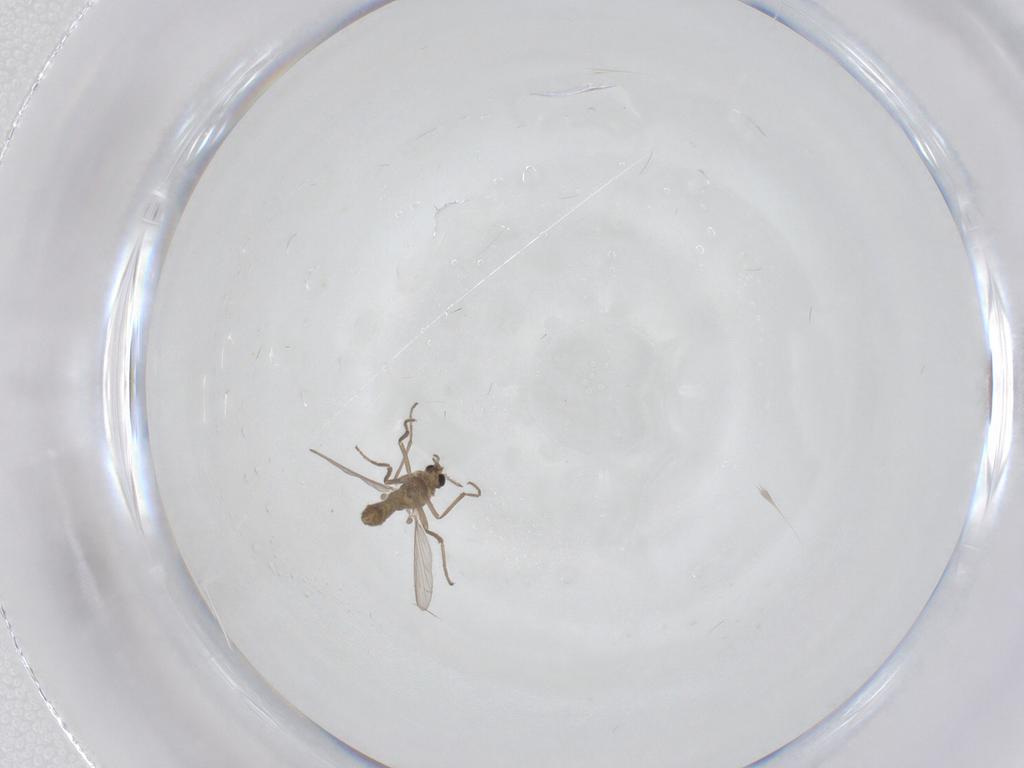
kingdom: Animalia
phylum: Arthropoda
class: Insecta
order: Diptera
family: Chironomidae
